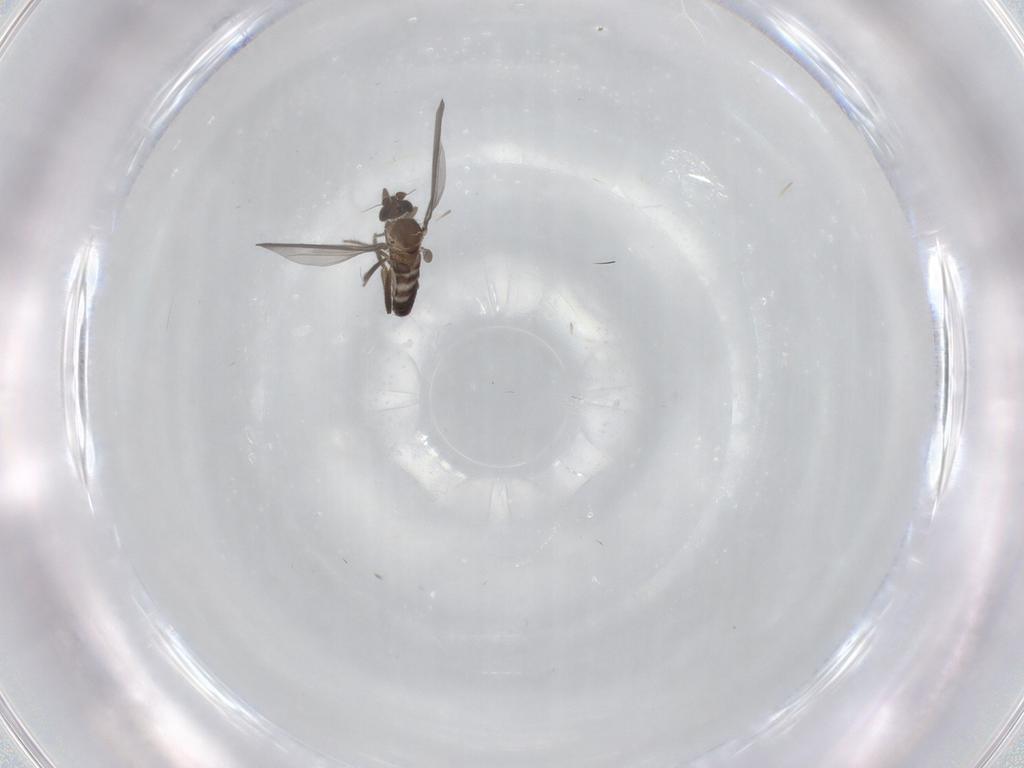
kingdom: Animalia
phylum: Arthropoda
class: Insecta
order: Diptera
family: Phoridae
